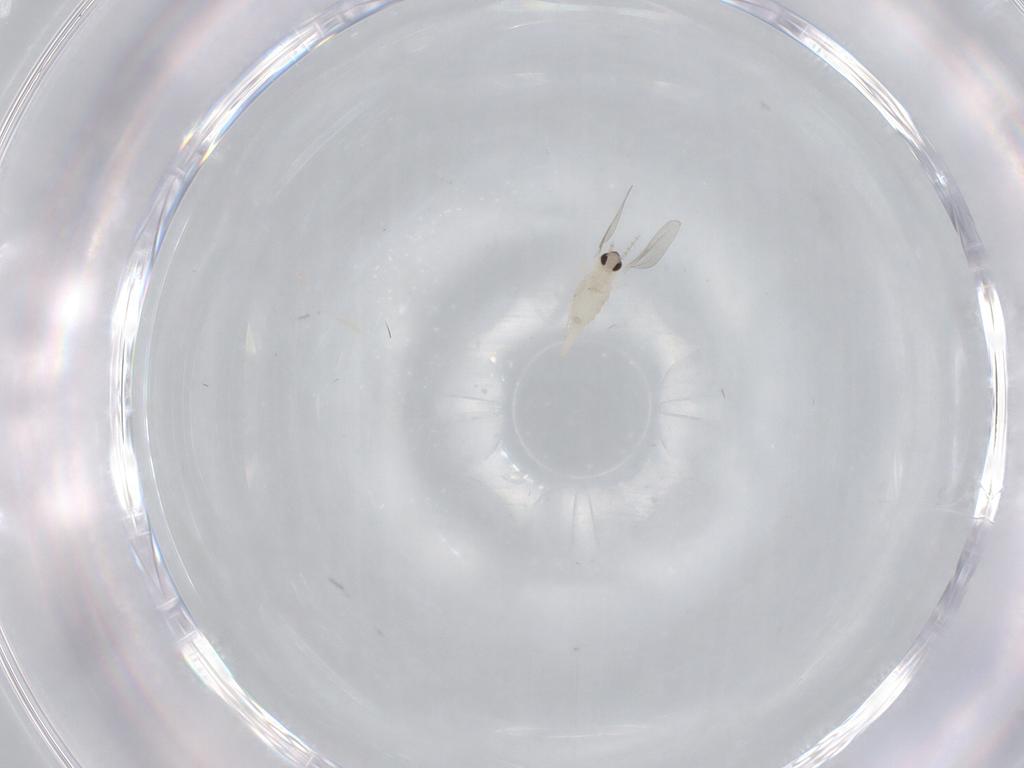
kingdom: Animalia
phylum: Arthropoda
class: Insecta
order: Diptera
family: Cecidomyiidae
